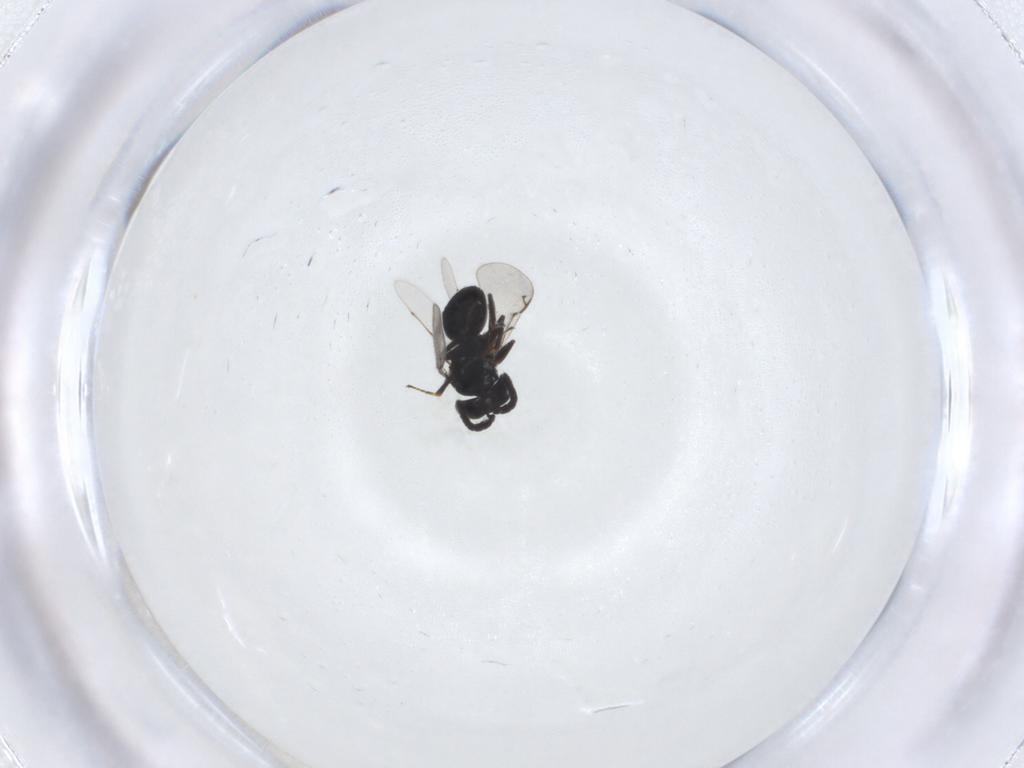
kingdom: Animalia
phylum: Arthropoda
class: Insecta
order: Hymenoptera
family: Eunotidae
